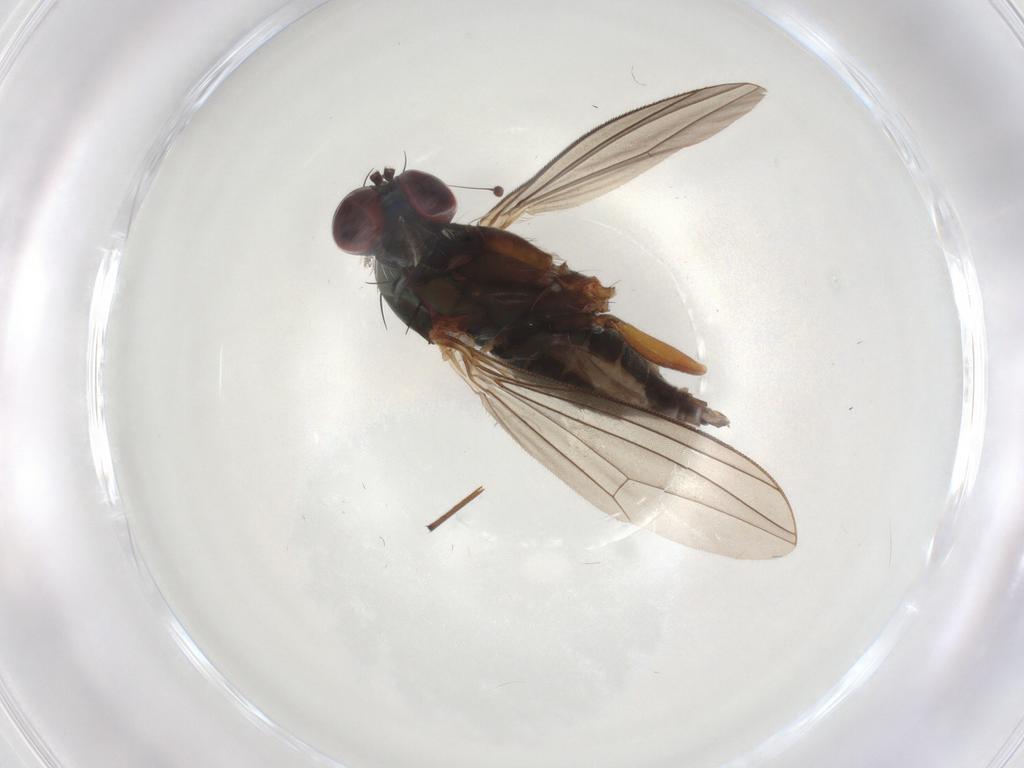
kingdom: Animalia
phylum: Arthropoda
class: Insecta
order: Diptera
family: Dolichopodidae
